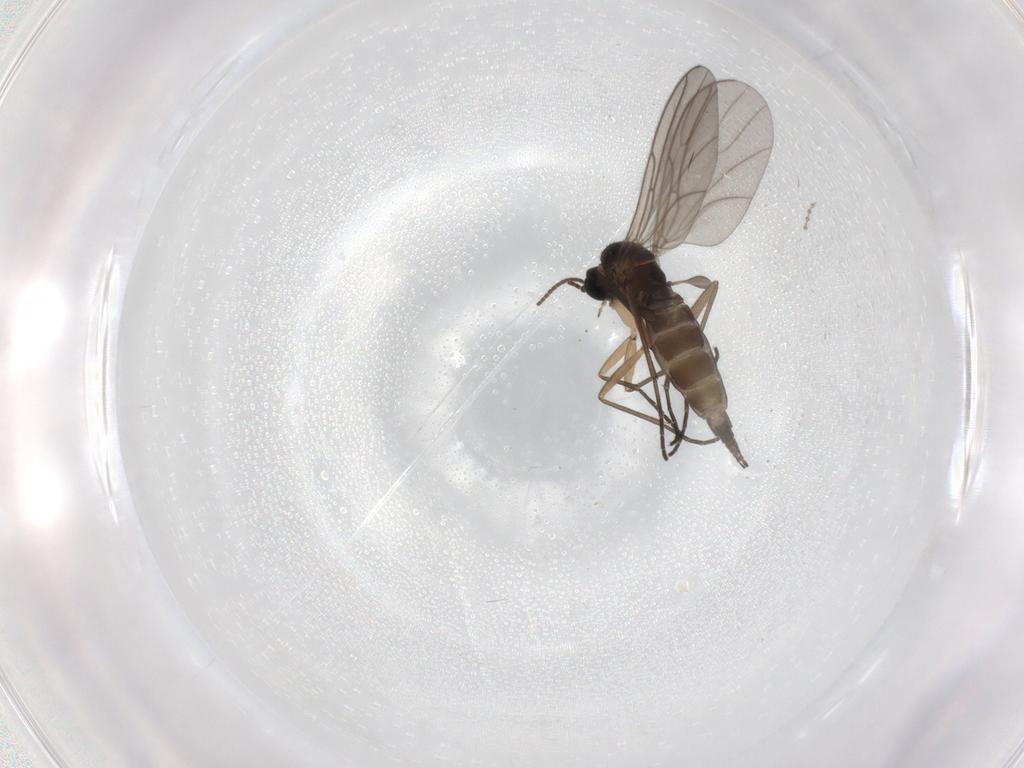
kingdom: Animalia
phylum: Arthropoda
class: Insecta
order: Diptera
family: Sciaridae
